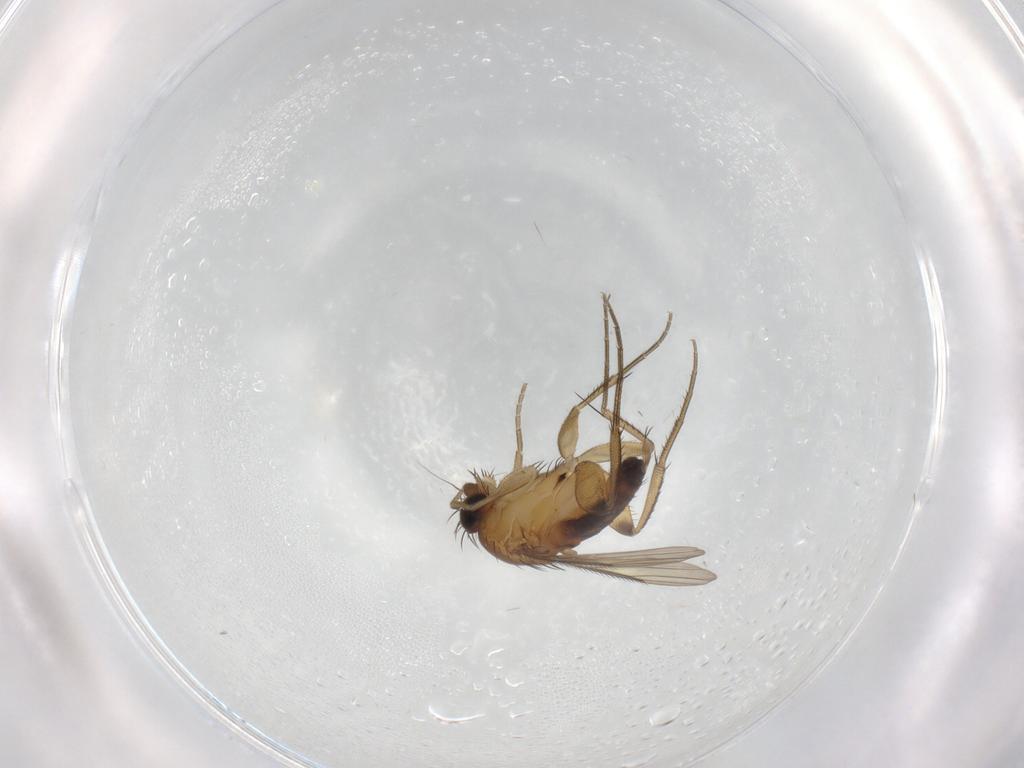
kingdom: Animalia
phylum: Arthropoda
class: Insecta
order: Diptera
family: Phoridae
